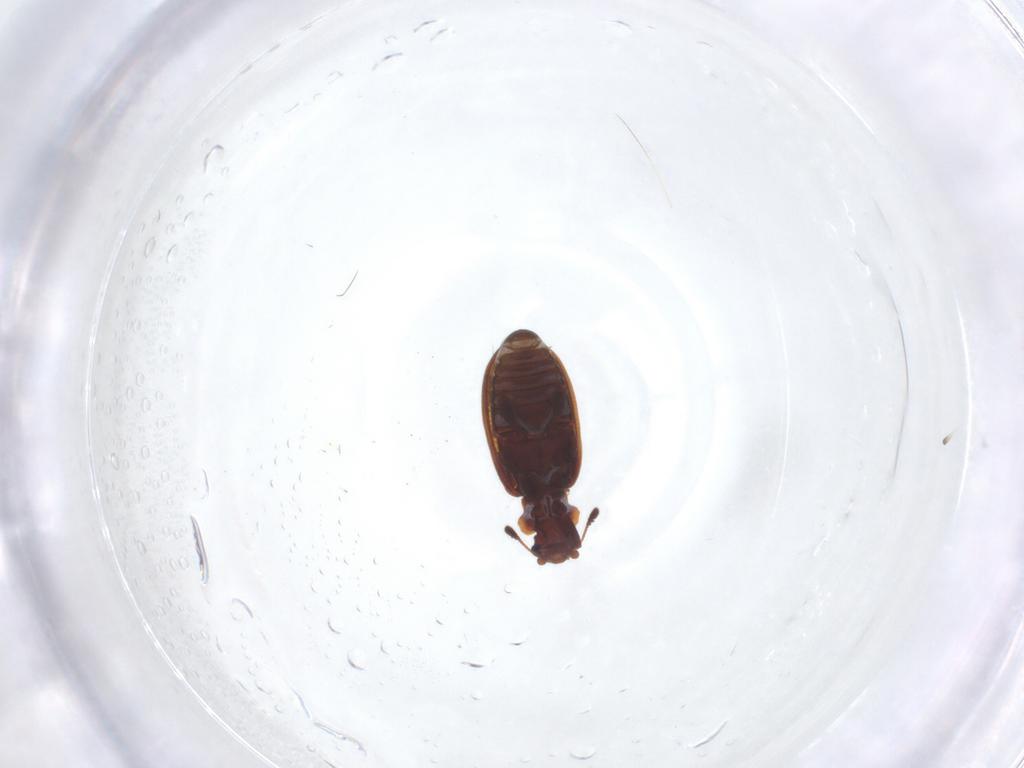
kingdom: Animalia
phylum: Arthropoda
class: Insecta
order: Coleoptera
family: Latridiidae
